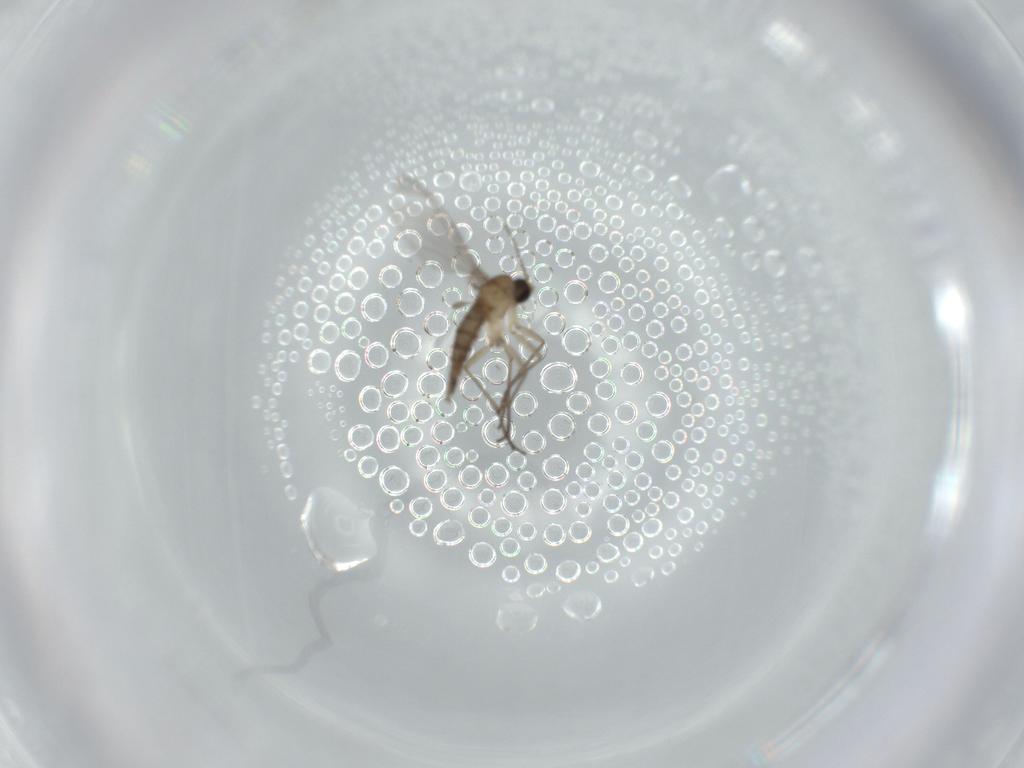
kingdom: Animalia
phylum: Arthropoda
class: Insecta
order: Diptera
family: Sciaridae
